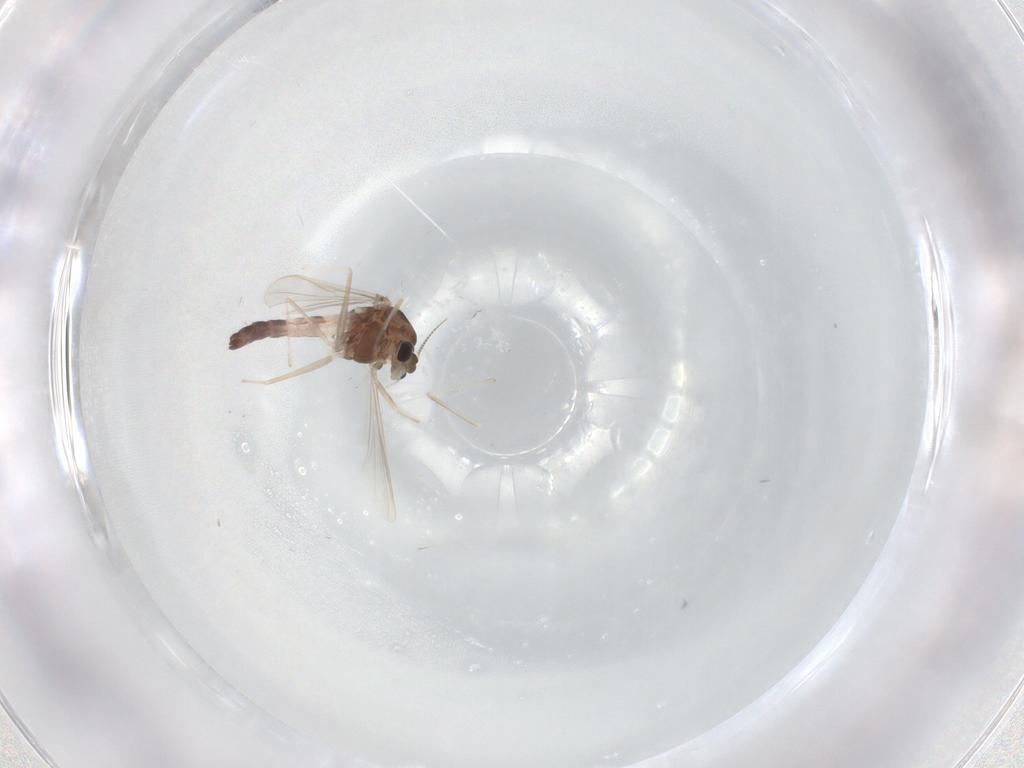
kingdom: Animalia
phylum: Arthropoda
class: Insecta
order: Diptera
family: Chironomidae
